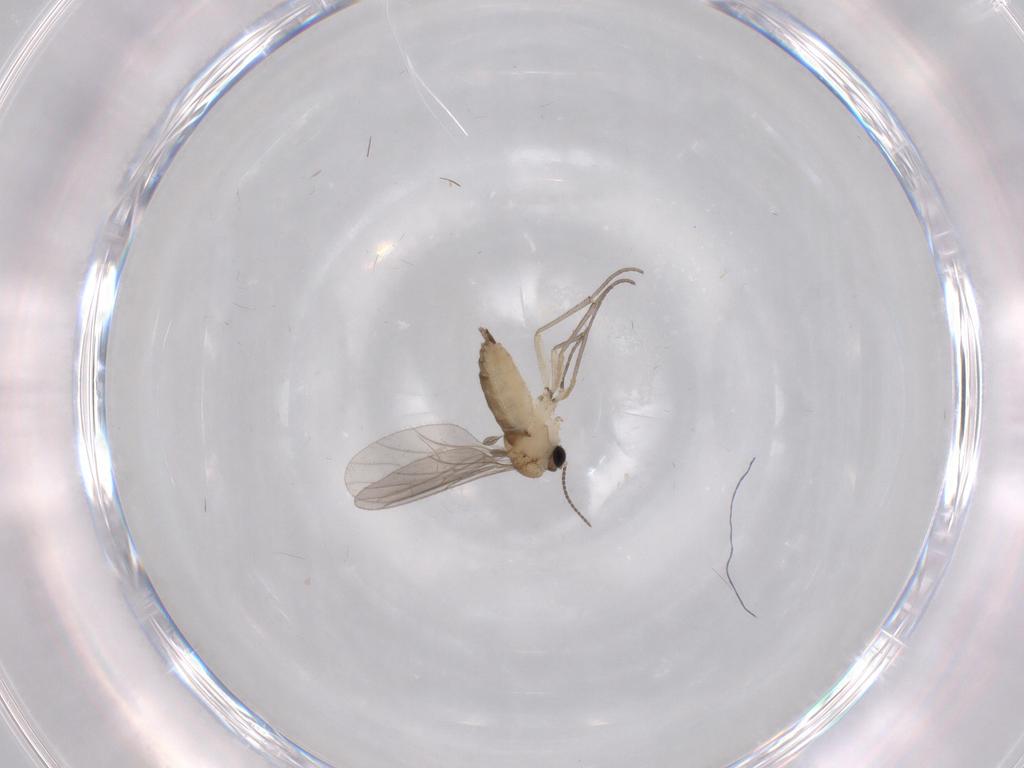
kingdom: Animalia
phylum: Arthropoda
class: Insecta
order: Diptera
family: Sciaridae
